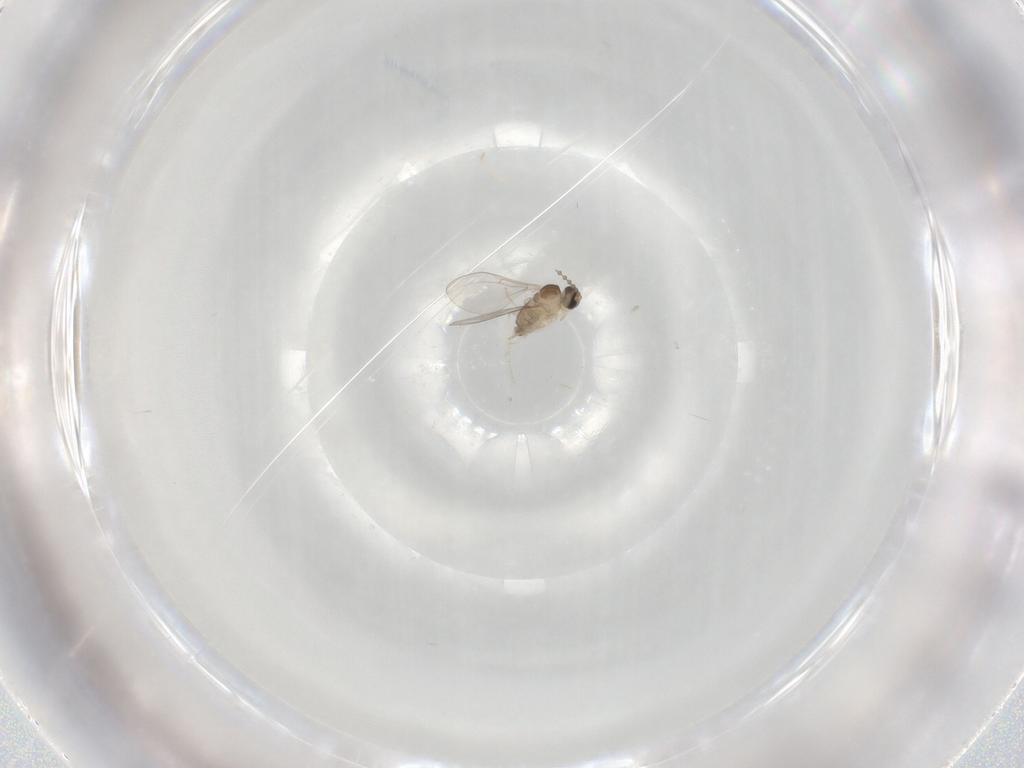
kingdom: Animalia
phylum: Arthropoda
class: Insecta
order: Diptera
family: Cecidomyiidae
